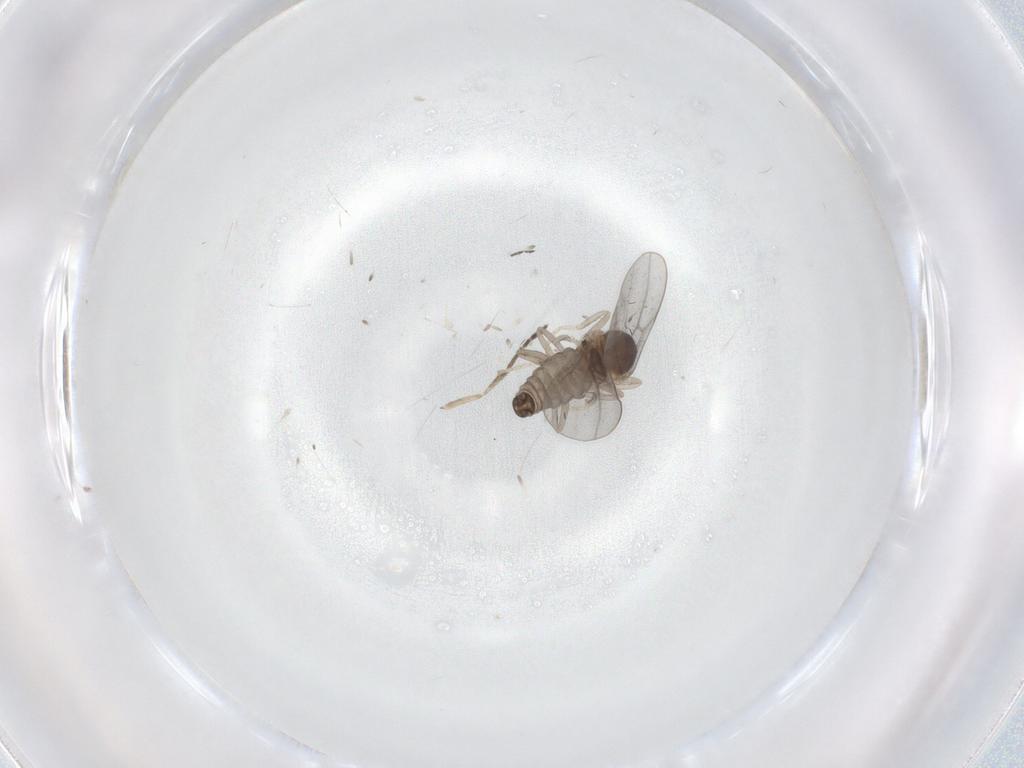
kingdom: Animalia
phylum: Arthropoda
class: Insecta
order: Diptera
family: Cecidomyiidae
